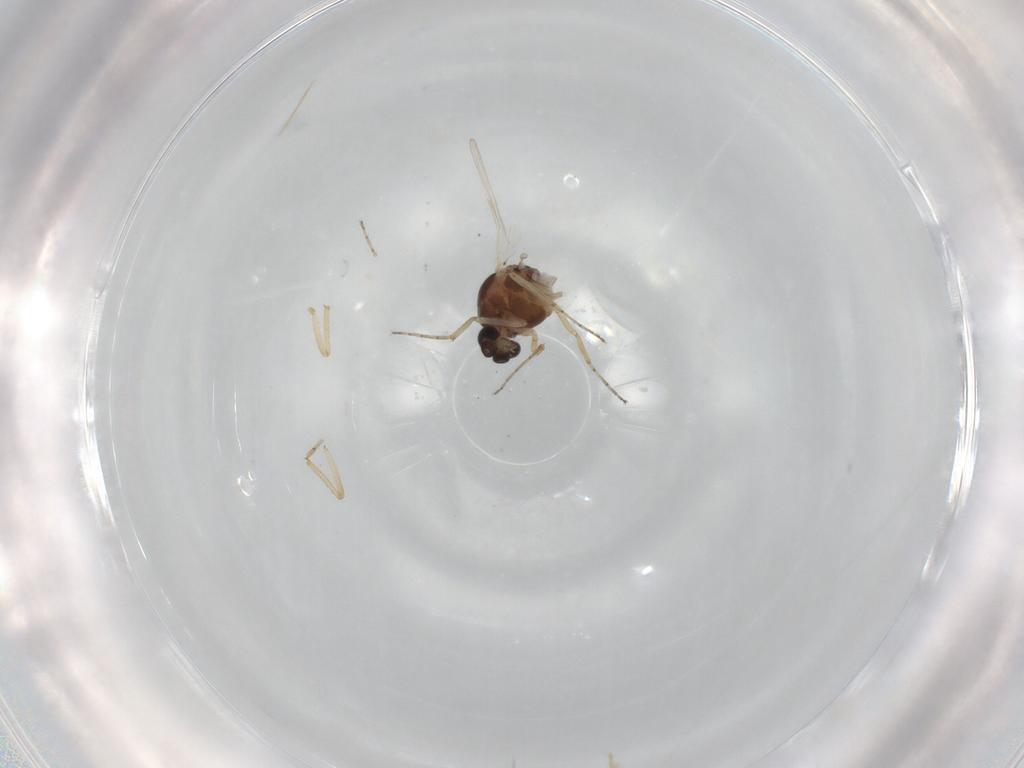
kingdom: Animalia
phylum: Arthropoda
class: Insecta
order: Diptera
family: Ceratopogonidae
